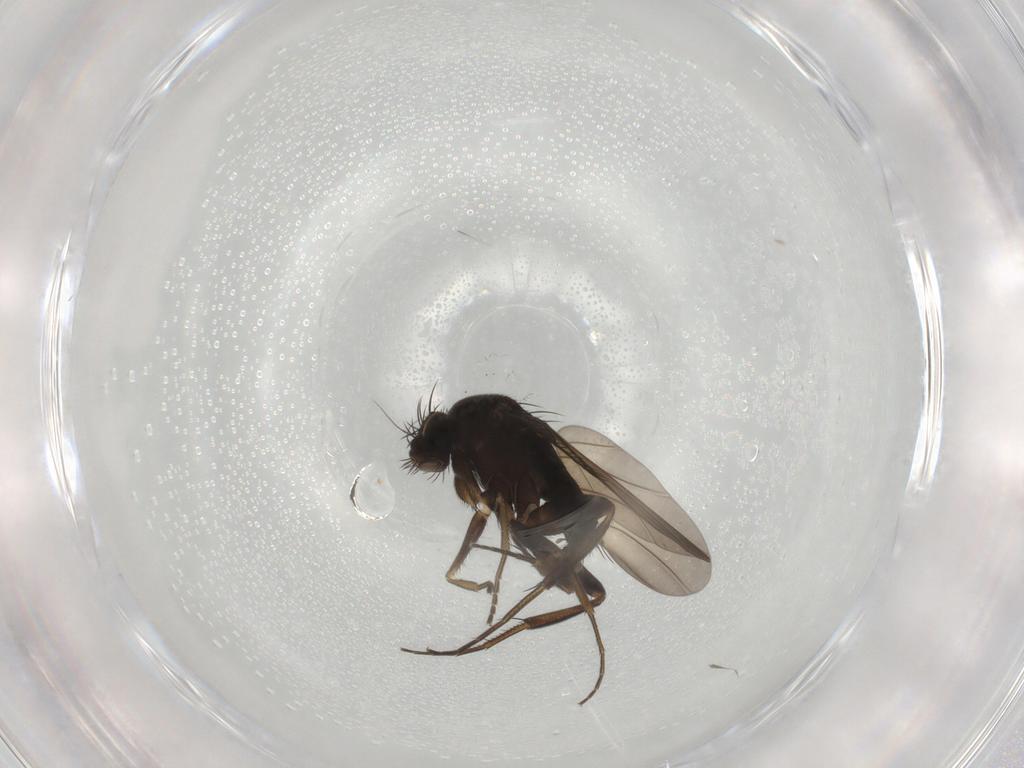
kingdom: Animalia
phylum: Arthropoda
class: Insecta
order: Diptera
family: Phoridae
